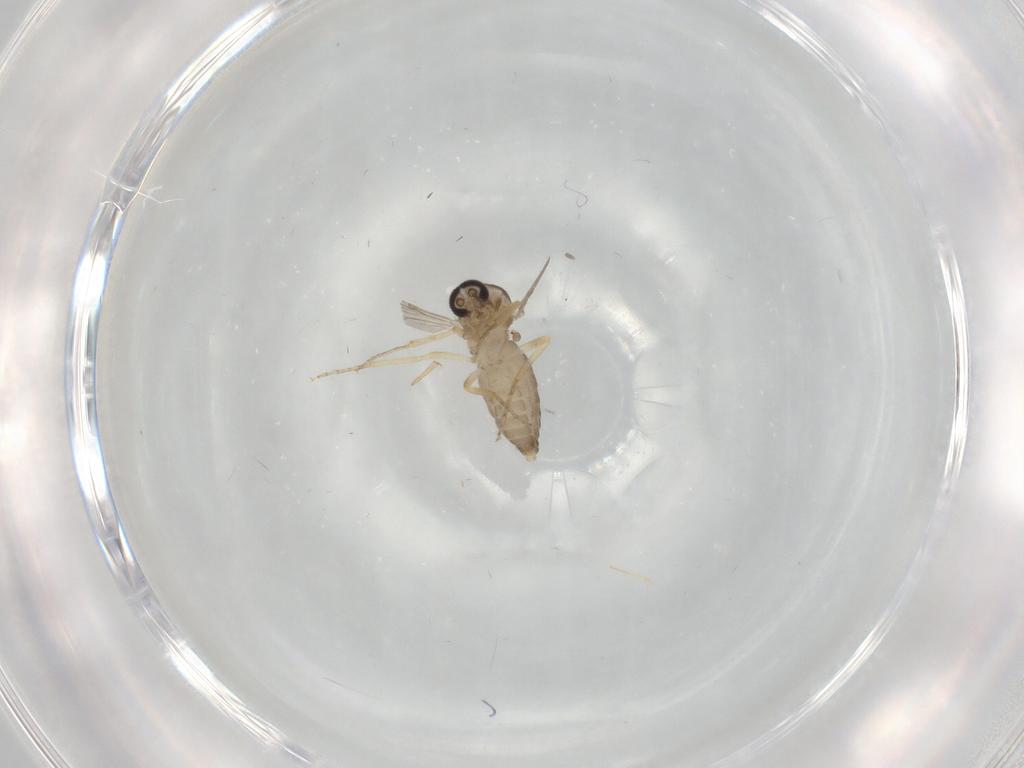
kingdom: Animalia
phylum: Arthropoda
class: Insecta
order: Diptera
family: Ceratopogonidae
